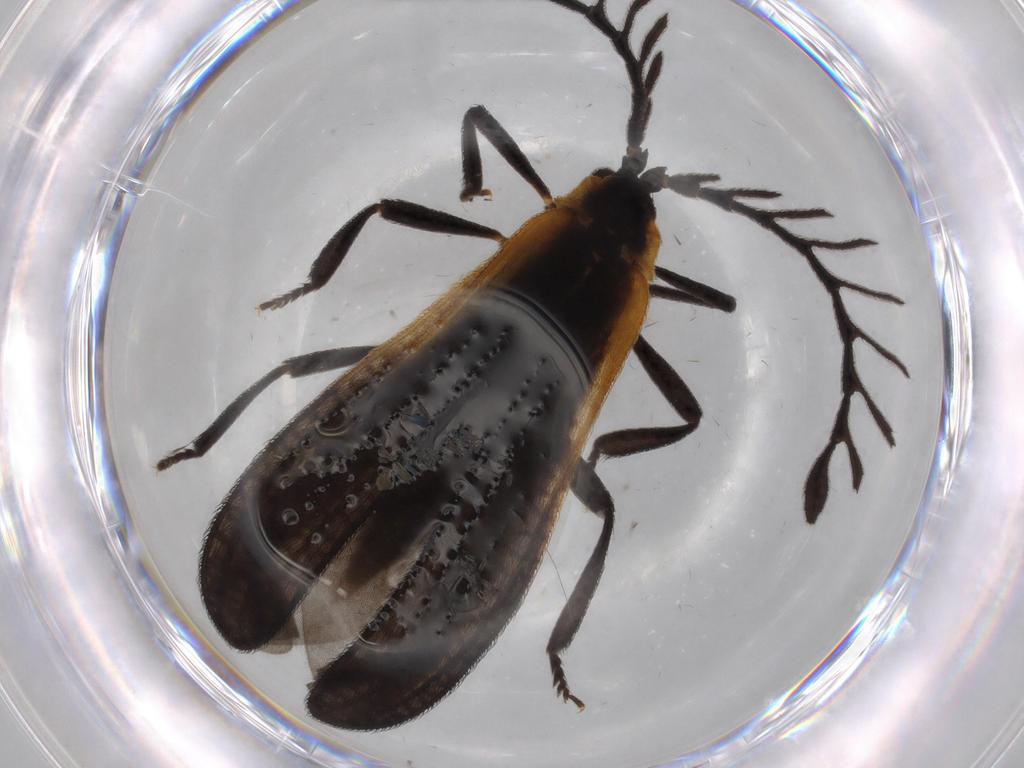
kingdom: Animalia
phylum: Arthropoda
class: Insecta
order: Coleoptera
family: Lycidae
